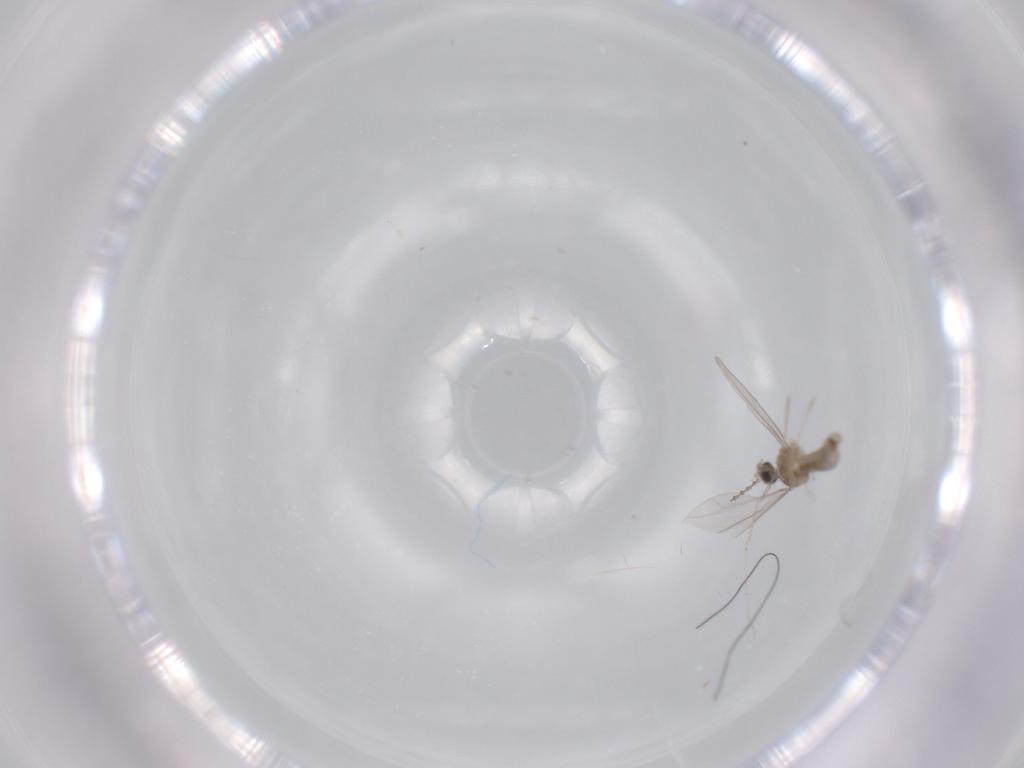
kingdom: Animalia
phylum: Arthropoda
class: Insecta
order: Diptera
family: Cecidomyiidae
